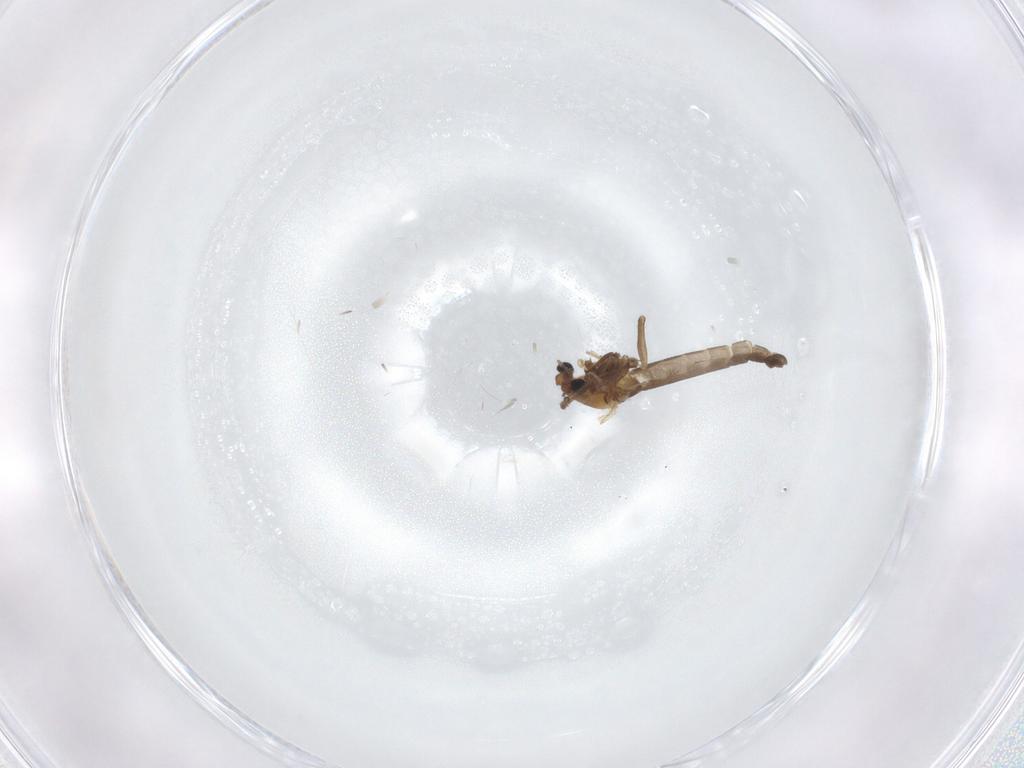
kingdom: Animalia
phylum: Arthropoda
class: Insecta
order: Diptera
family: Chironomidae
